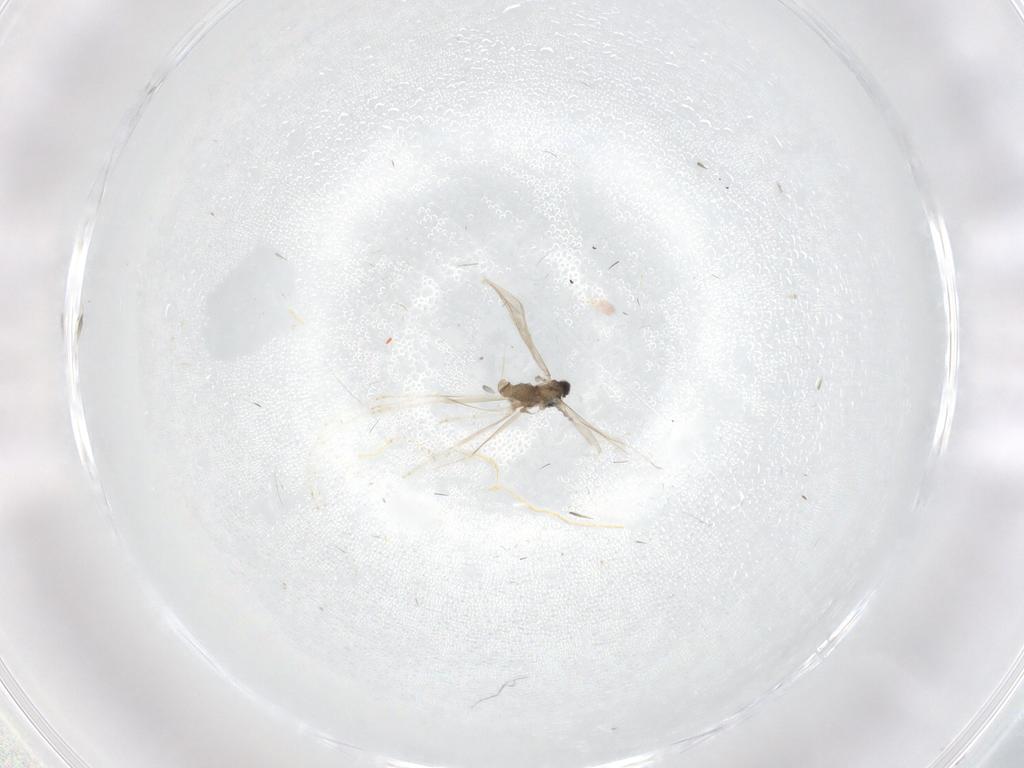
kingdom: Animalia
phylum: Arthropoda
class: Insecta
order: Diptera
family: Cecidomyiidae
